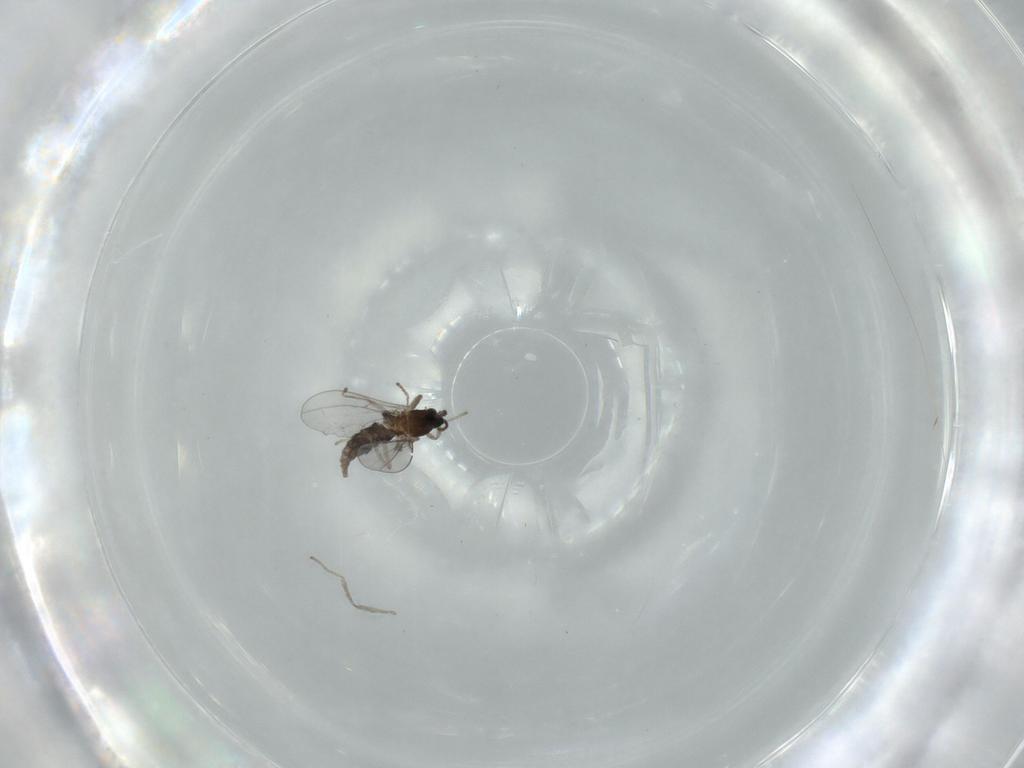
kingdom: Animalia
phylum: Arthropoda
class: Insecta
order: Diptera
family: Cecidomyiidae
